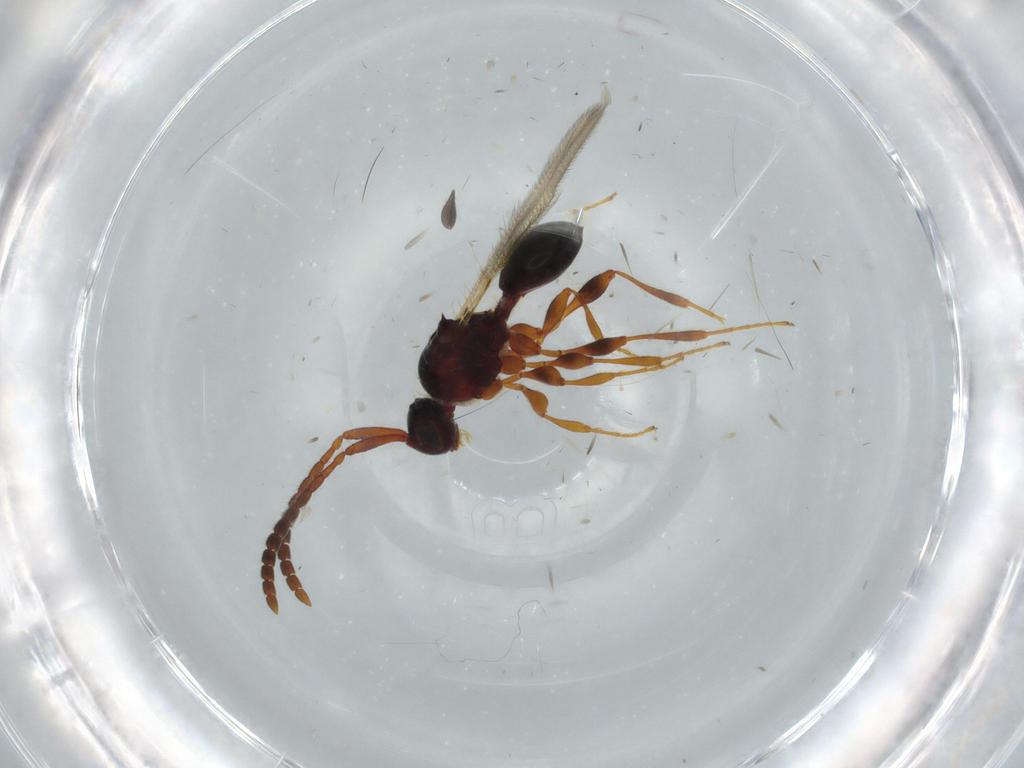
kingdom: Animalia
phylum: Arthropoda
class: Insecta
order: Hymenoptera
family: Diapriidae
